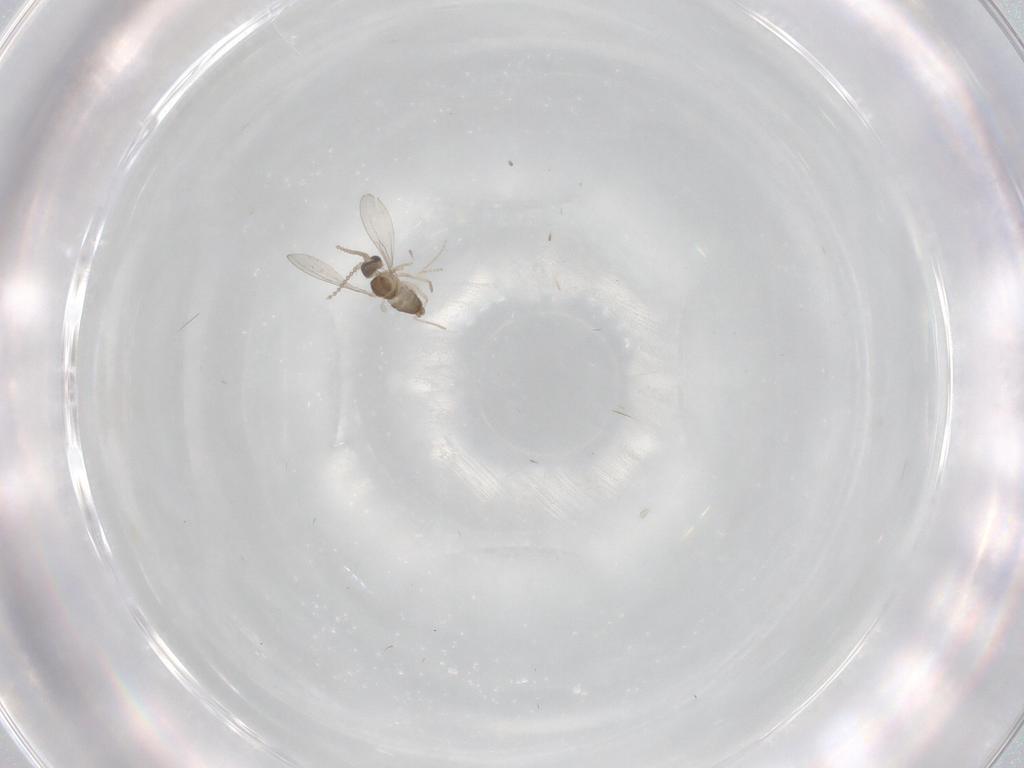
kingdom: Animalia
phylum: Arthropoda
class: Insecta
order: Diptera
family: Cecidomyiidae
